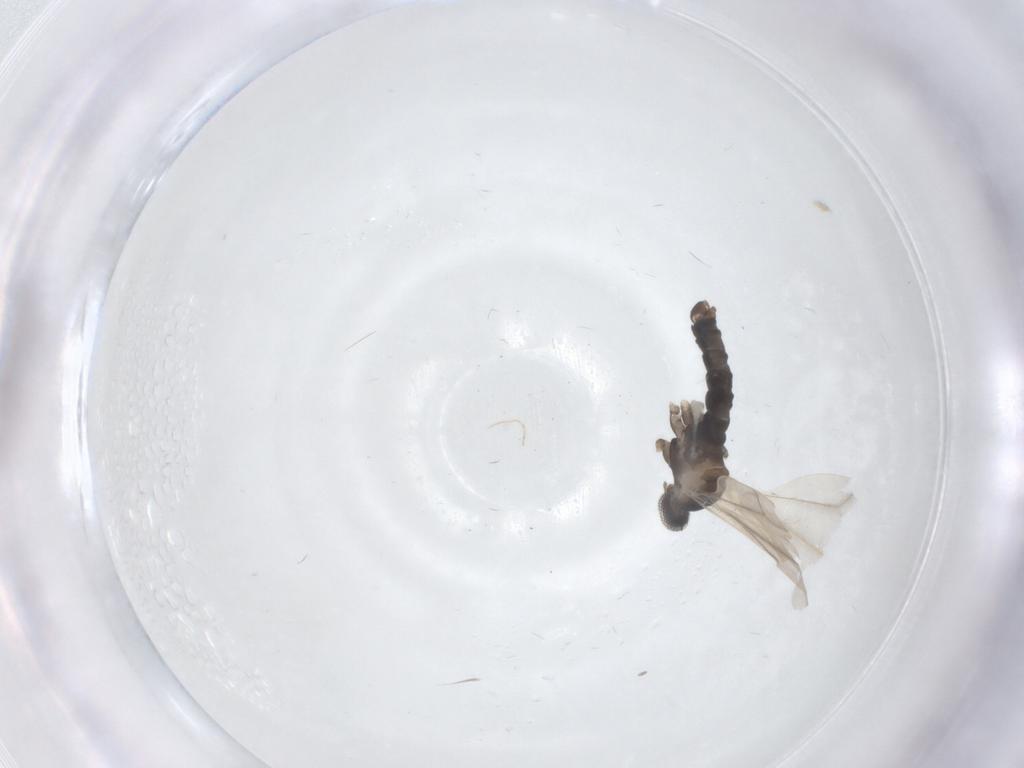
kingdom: Animalia
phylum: Arthropoda
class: Insecta
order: Diptera
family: Cecidomyiidae
